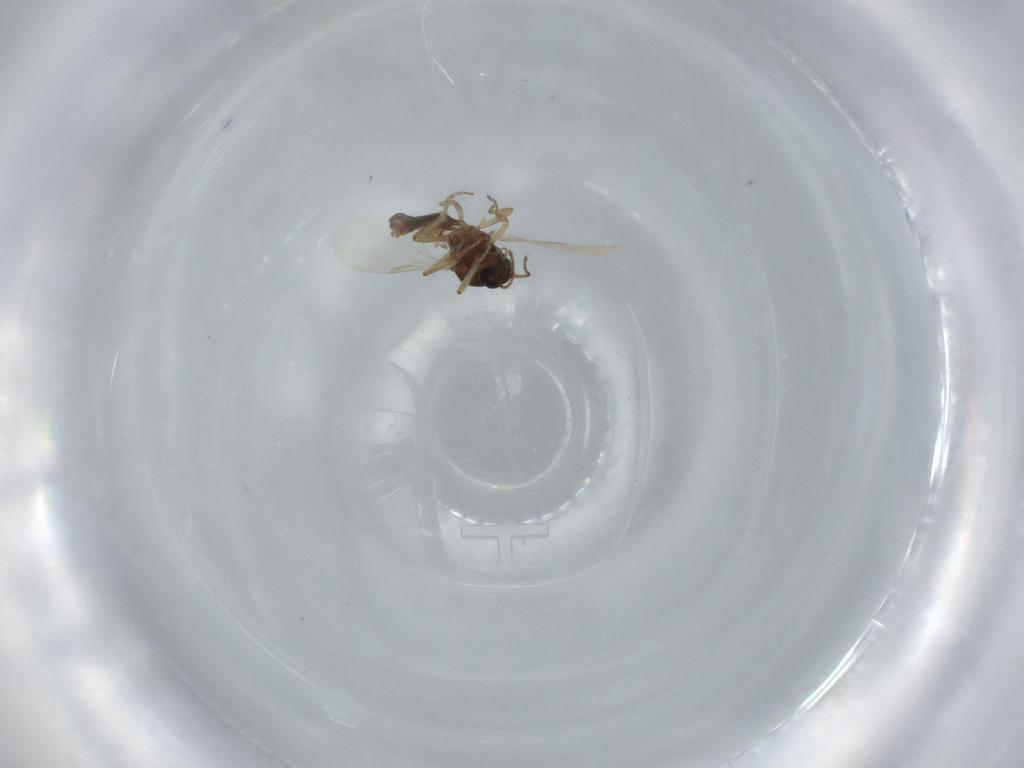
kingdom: Animalia
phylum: Arthropoda
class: Insecta
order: Diptera
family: Ceratopogonidae
